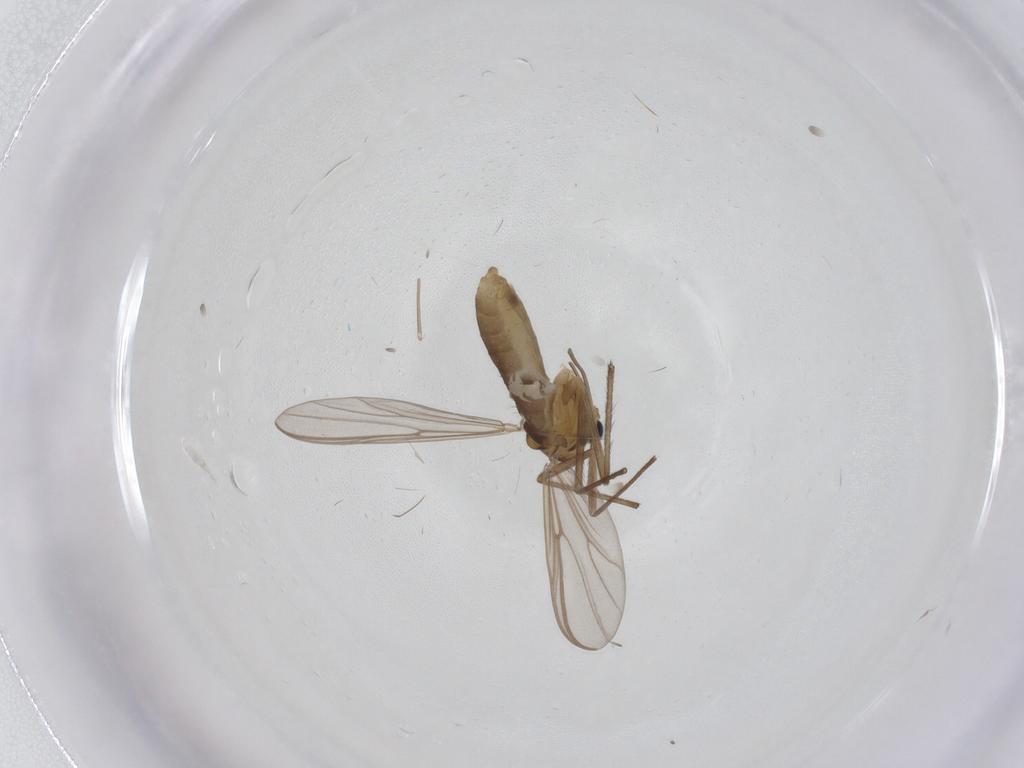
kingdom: Animalia
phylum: Arthropoda
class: Insecta
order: Diptera
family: Chironomidae
